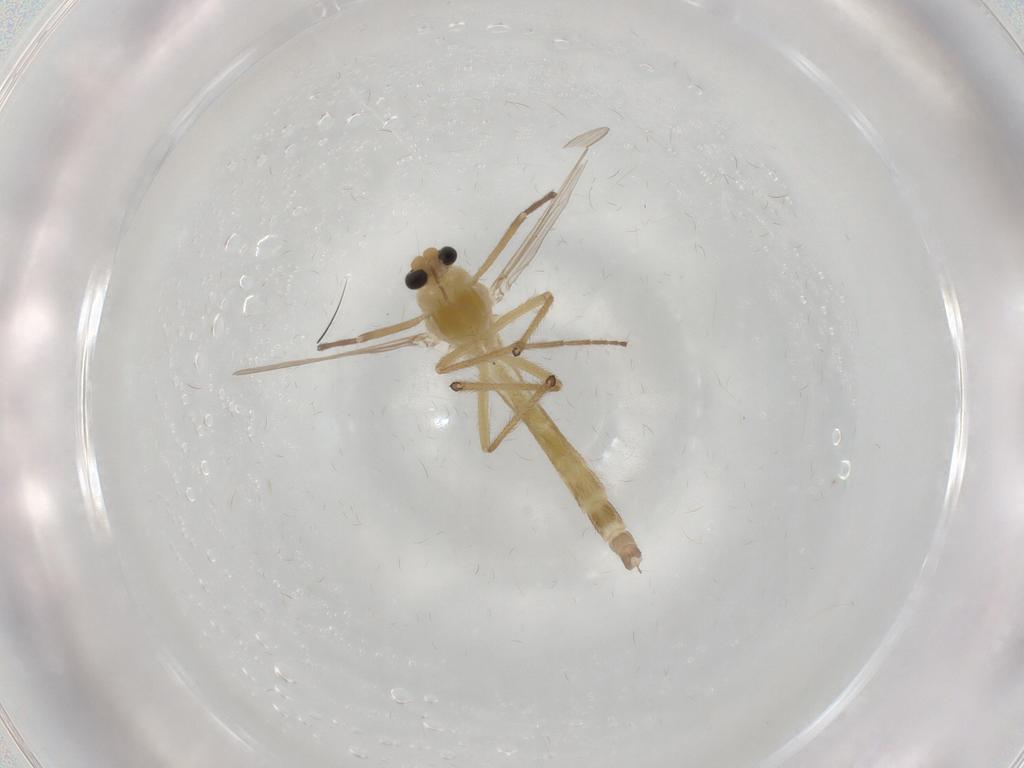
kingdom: Animalia
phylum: Arthropoda
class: Insecta
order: Diptera
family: Chironomidae
